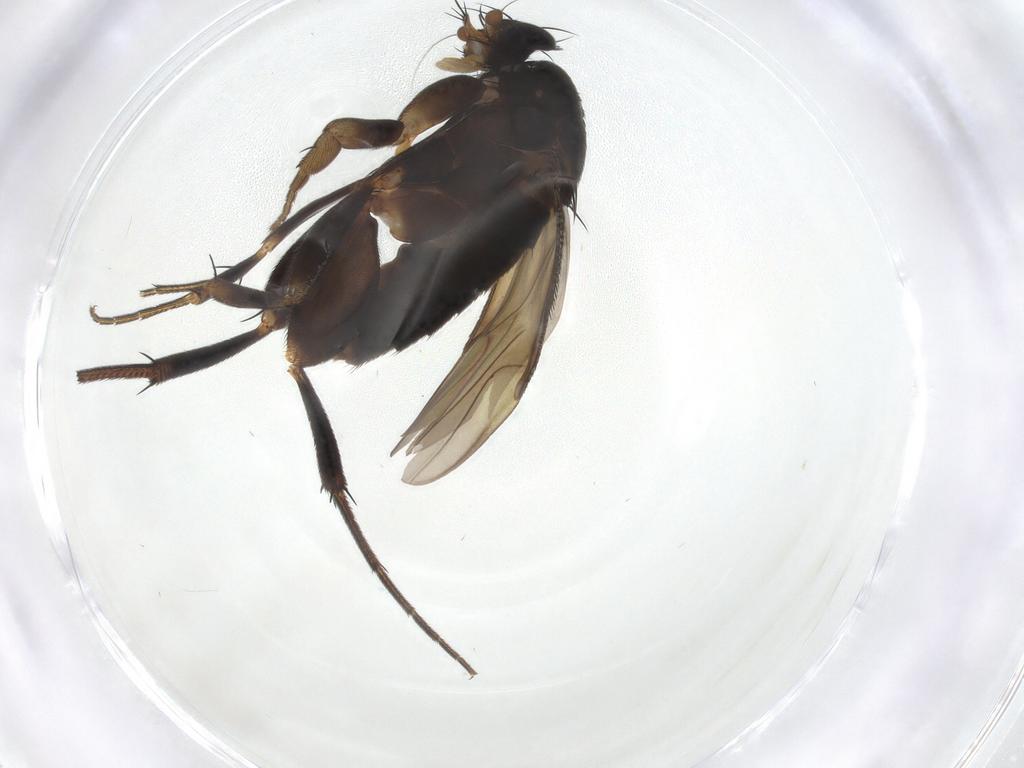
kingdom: Animalia
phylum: Arthropoda
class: Insecta
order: Diptera
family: Phoridae
